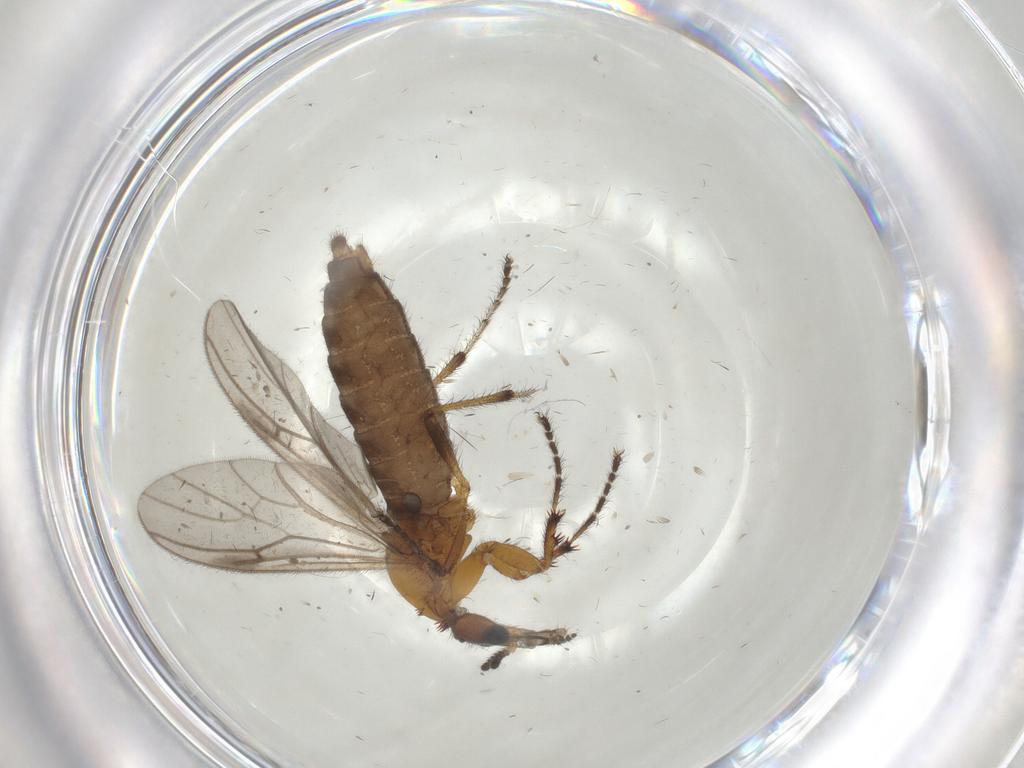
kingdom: Animalia
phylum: Arthropoda
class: Insecta
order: Diptera
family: Bibionidae
